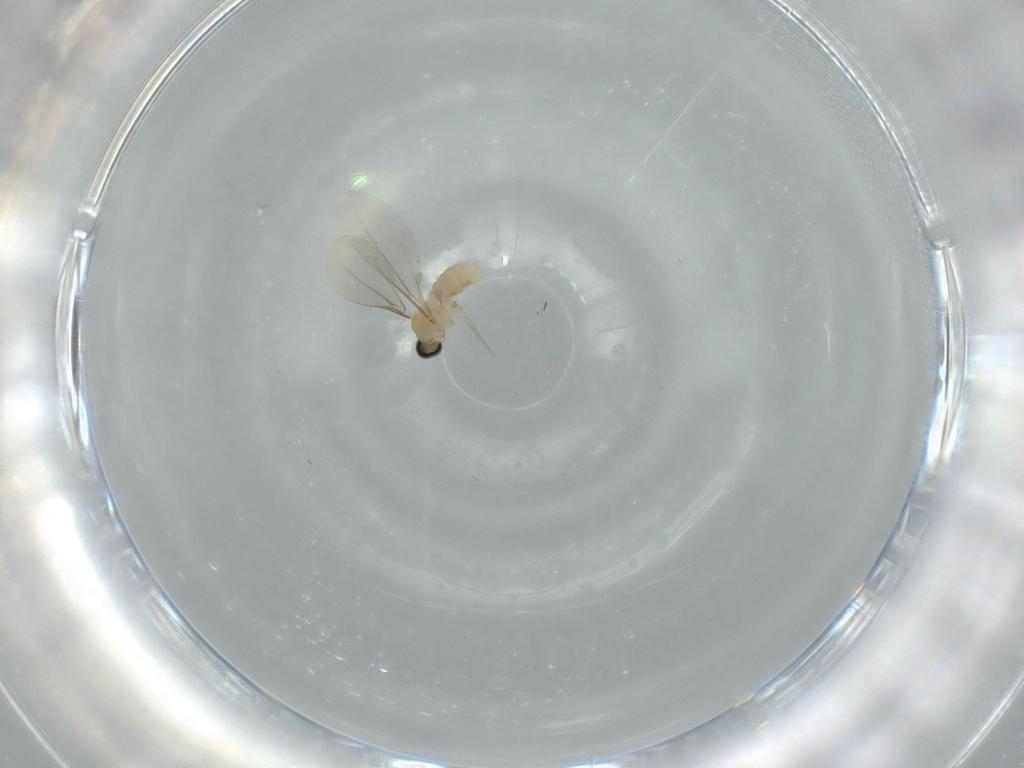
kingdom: Animalia
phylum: Arthropoda
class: Insecta
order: Diptera
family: Cecidomyiidae
